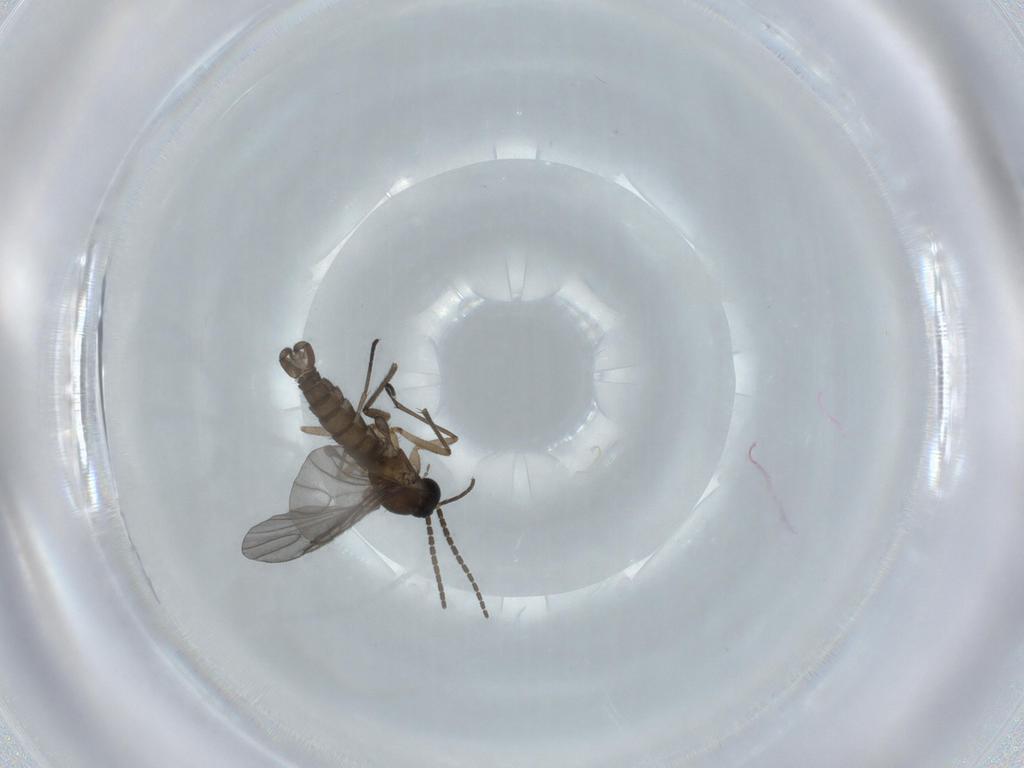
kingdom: Animalia
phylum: Arthropoda
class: Insecta
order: Diptera
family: Sciaridae
